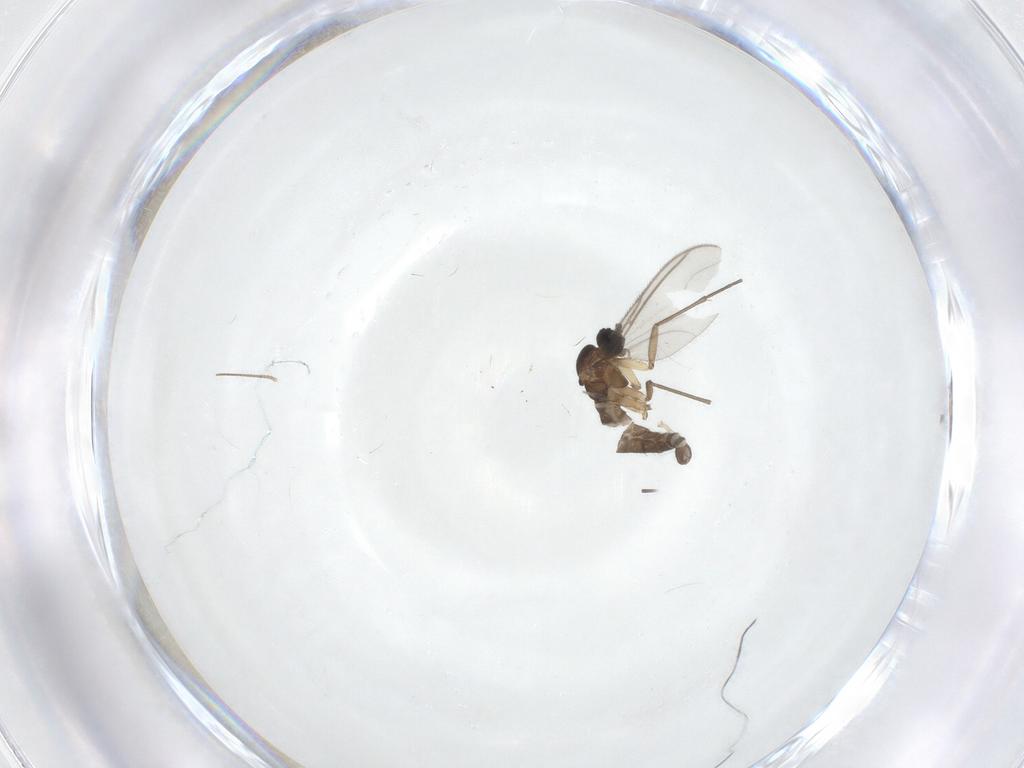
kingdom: Animalia
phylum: Arthropoda
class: Insecta
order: Diptera
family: Sciaridae
